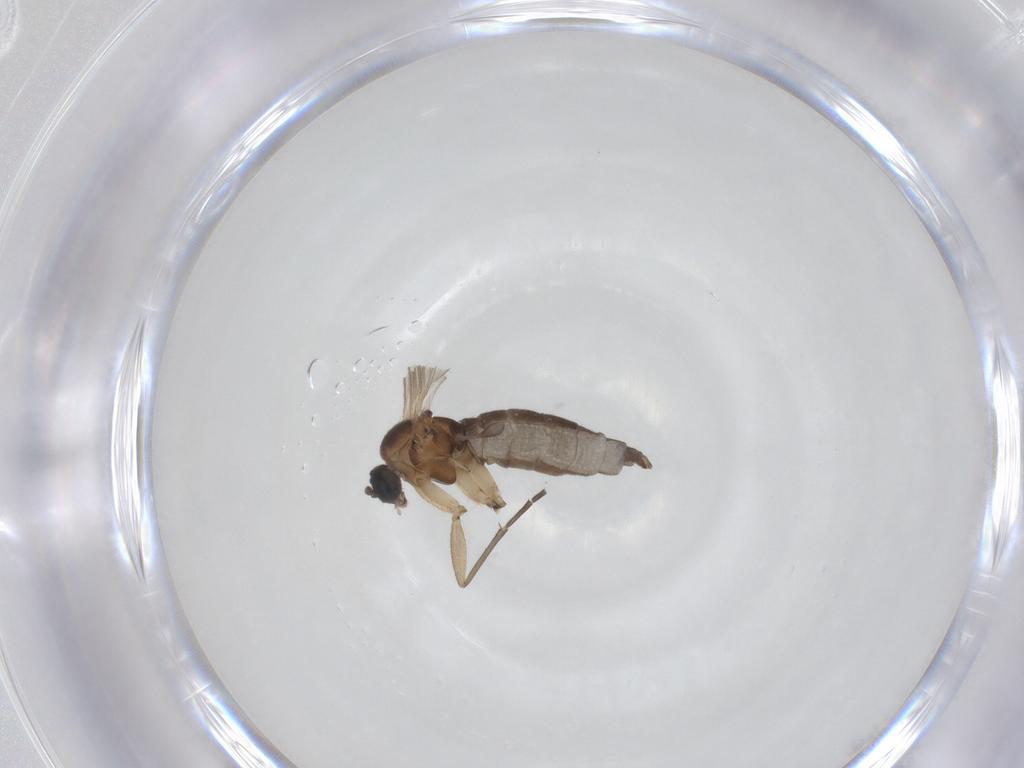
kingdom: Animalia
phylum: Arthropoda
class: Insecta
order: Diptera
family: Sciaridae
